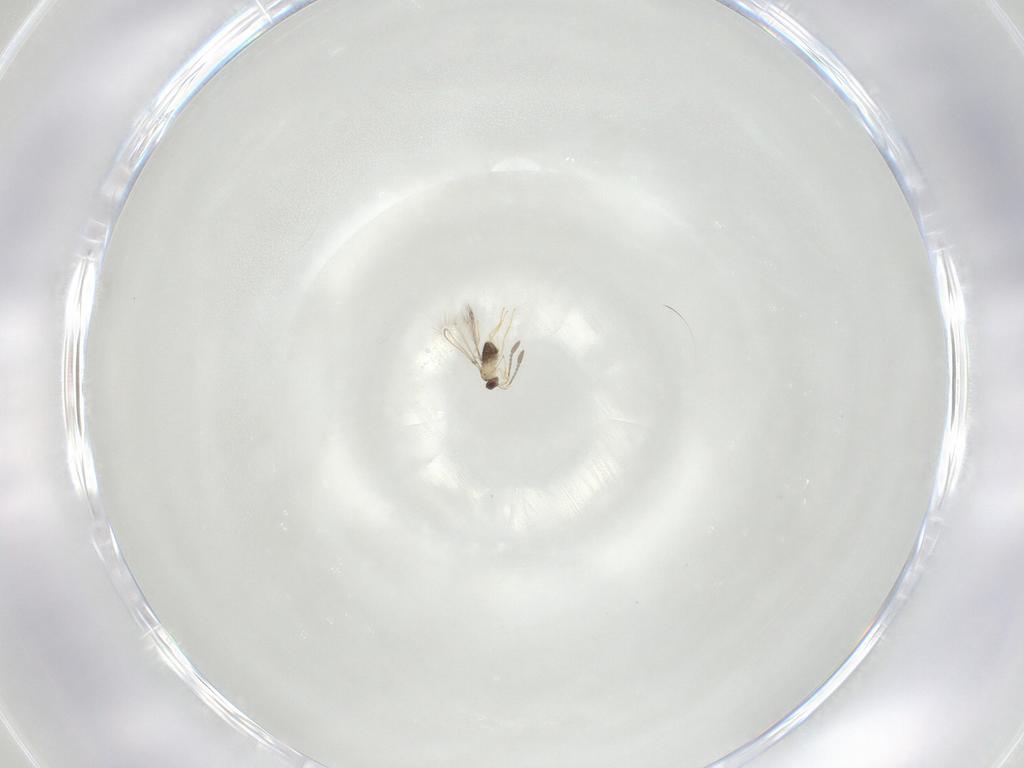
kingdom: Animalia
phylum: Arthropoda
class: Insecta
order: Hymenoptera
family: Mymaridae
